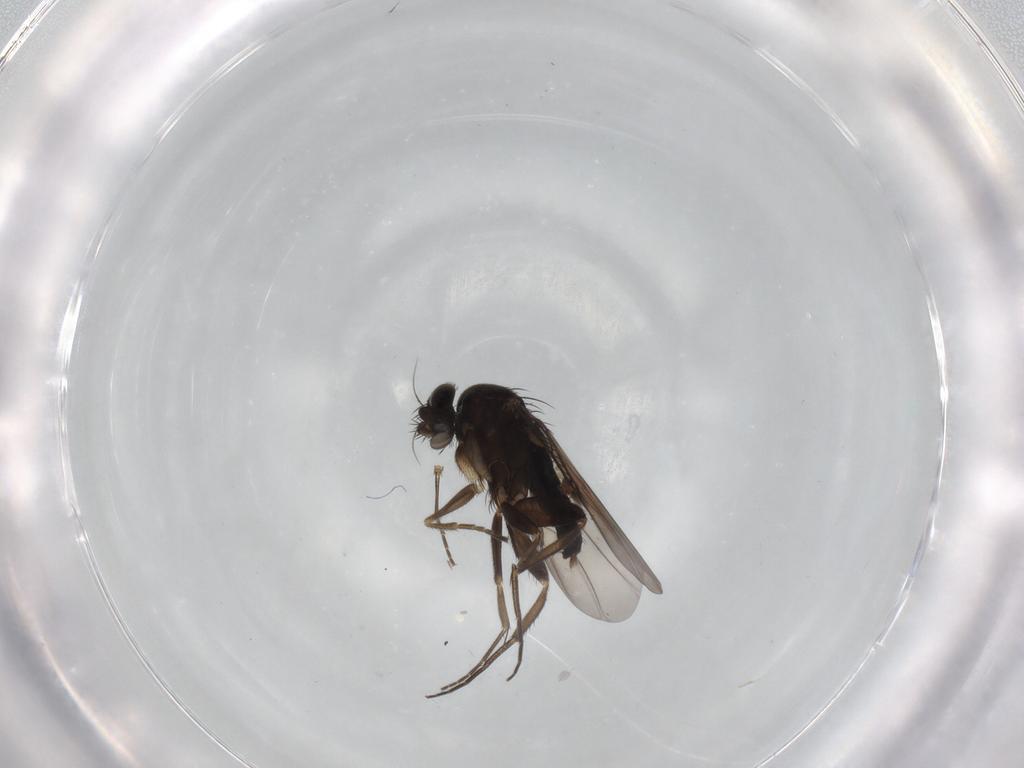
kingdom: Animalia
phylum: Arthropoda
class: Insecta
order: Diptera
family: Phoridae
